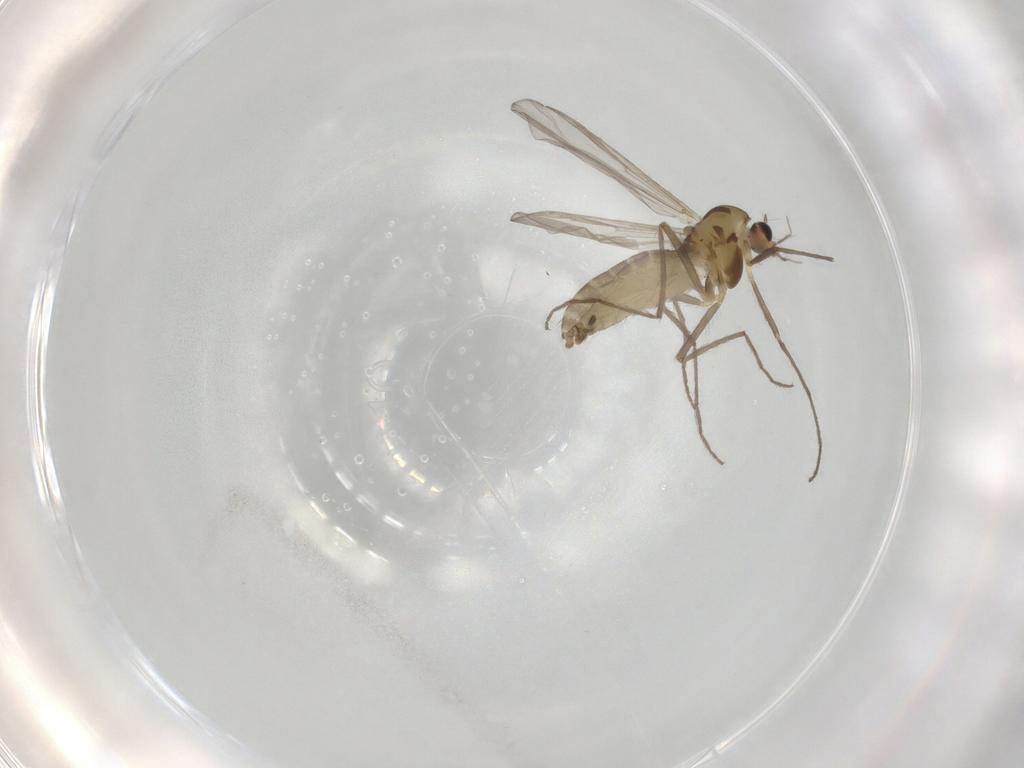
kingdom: Animalia
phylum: Arthropoda
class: Insecta
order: Diptera
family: Chironomidae
